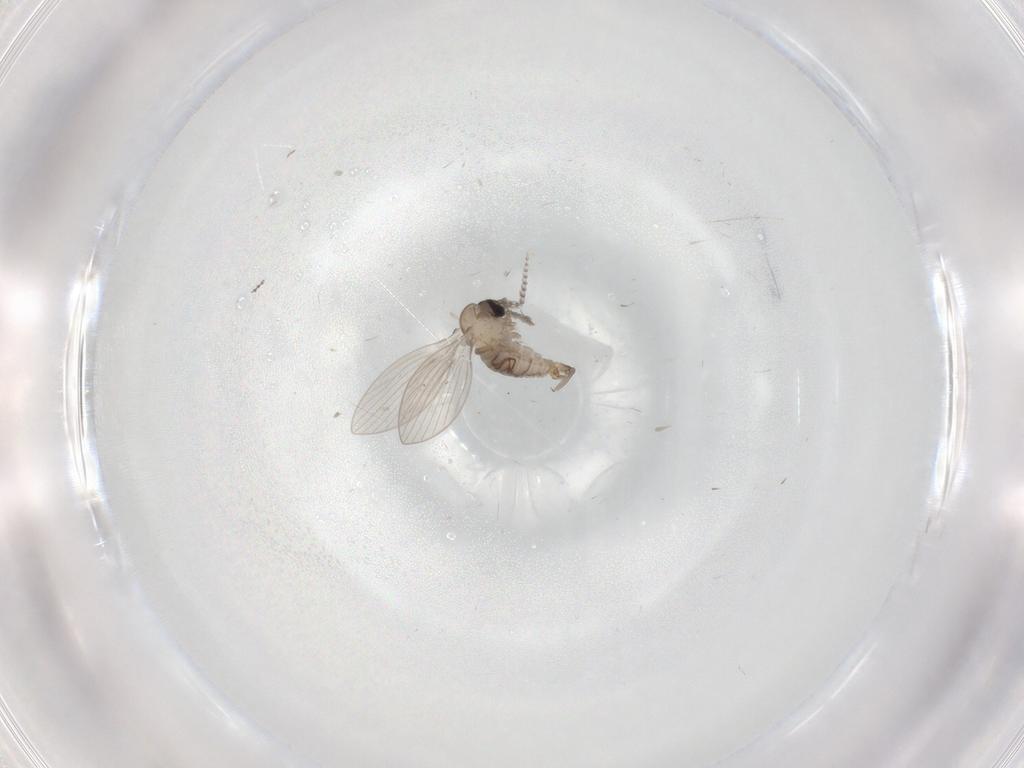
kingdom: Animalia
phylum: Arthropoda
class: Insecta
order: Diptera
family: Psychodidae
